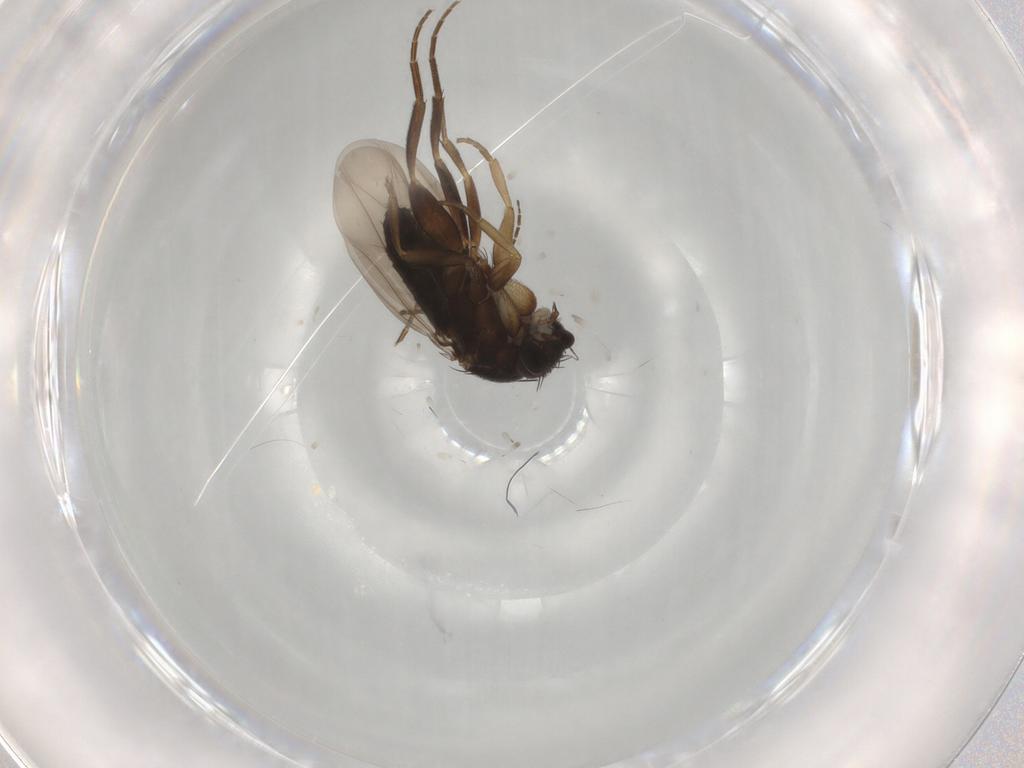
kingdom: Animalia
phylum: Arthropoda
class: Insecta
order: Diptera
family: Phoridae
